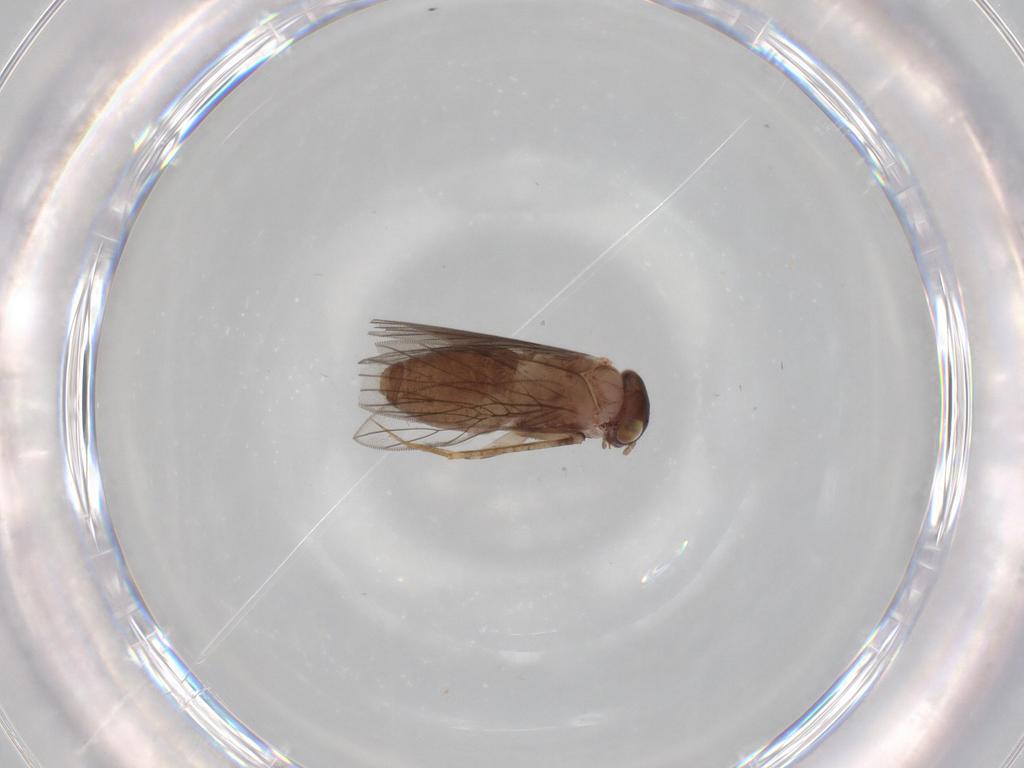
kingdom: Animalia
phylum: Arthropoda
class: Insecta
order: Psocodea
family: Lepidopsocidae
